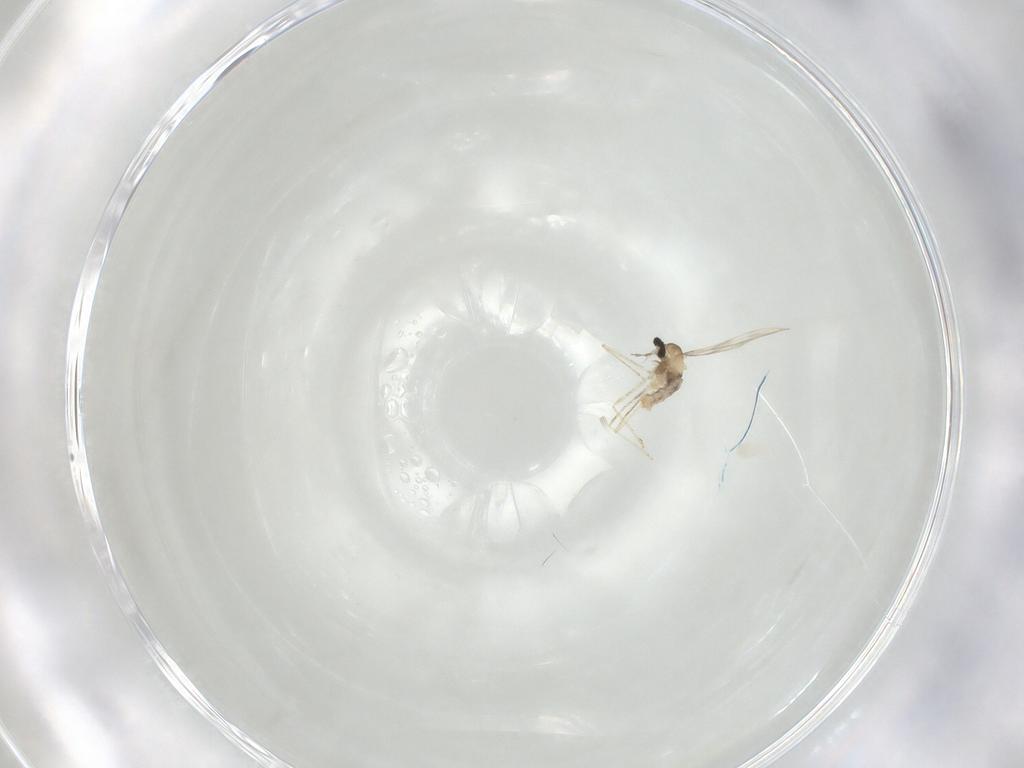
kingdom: Animalia
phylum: Arthropoda
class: Insecta
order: Diptera
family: Cecidomyiidae
